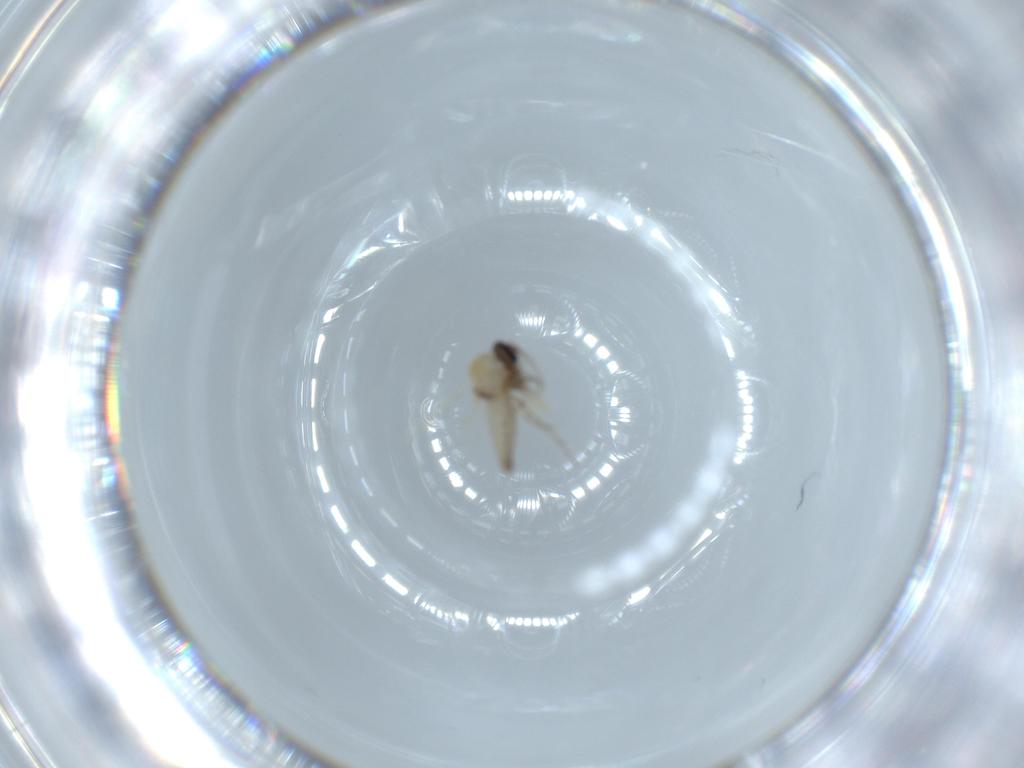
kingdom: Animalia
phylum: Arthropoda
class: Insecta
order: Diptera
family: Ceratopogonidae
